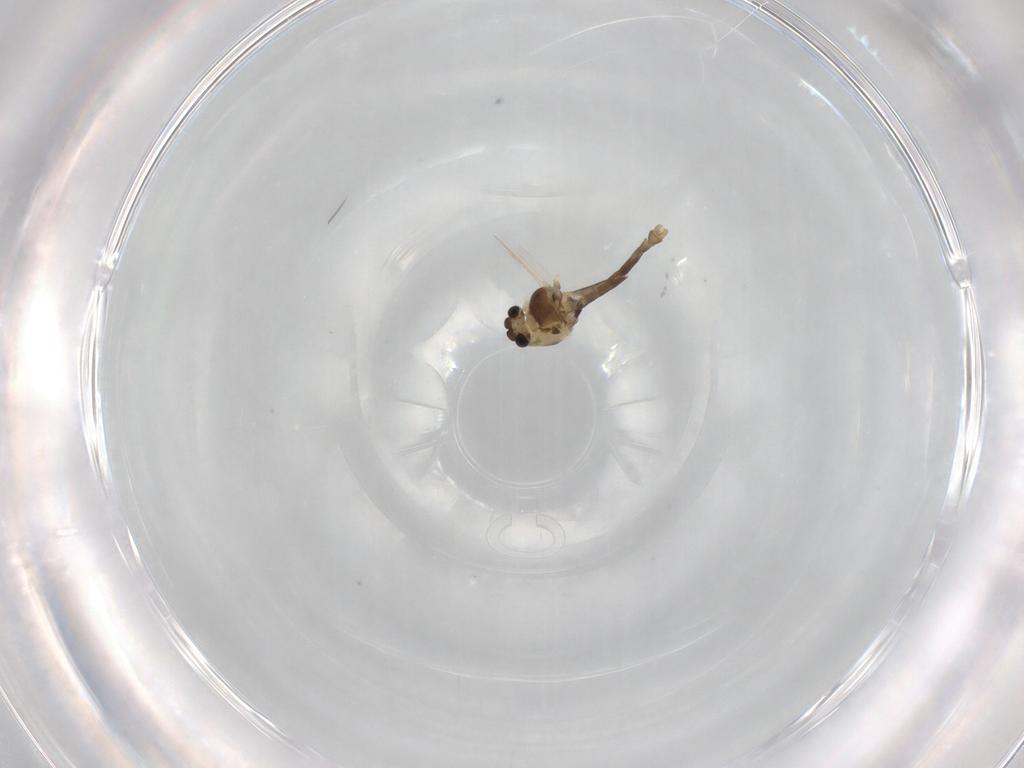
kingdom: Animalia
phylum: Arthropoda
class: Insecta
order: Diptera
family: Chironomidae
